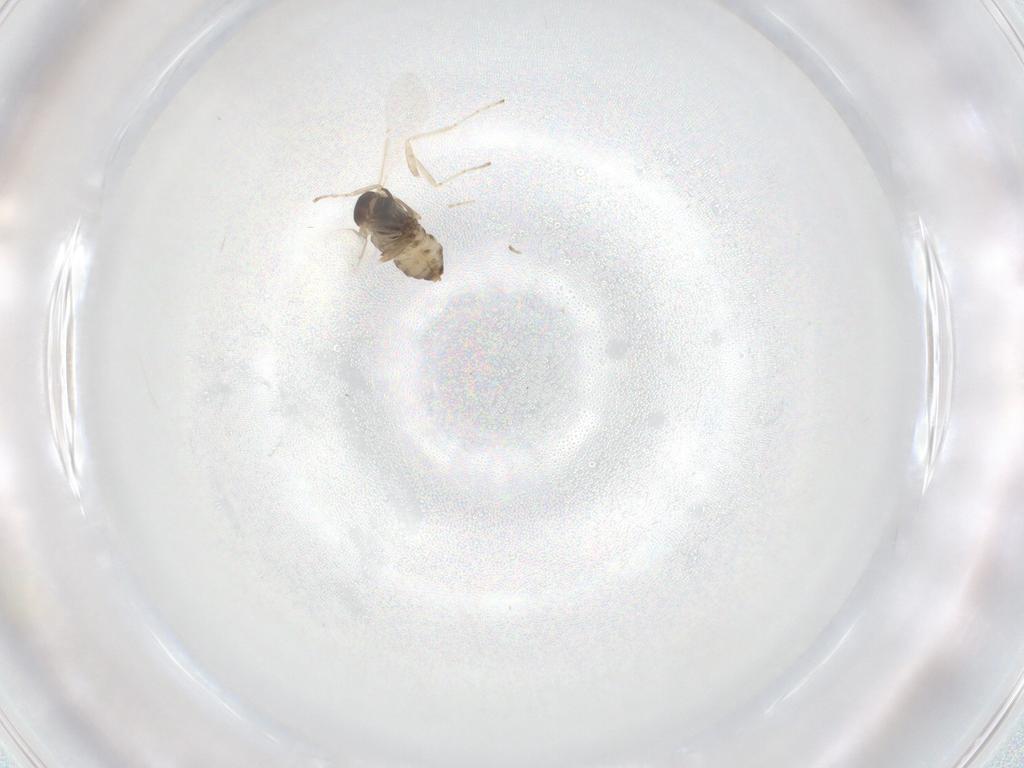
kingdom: Animalia
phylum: Arthropoda
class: Insecta
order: Diptera
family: Cecidomyiidae
